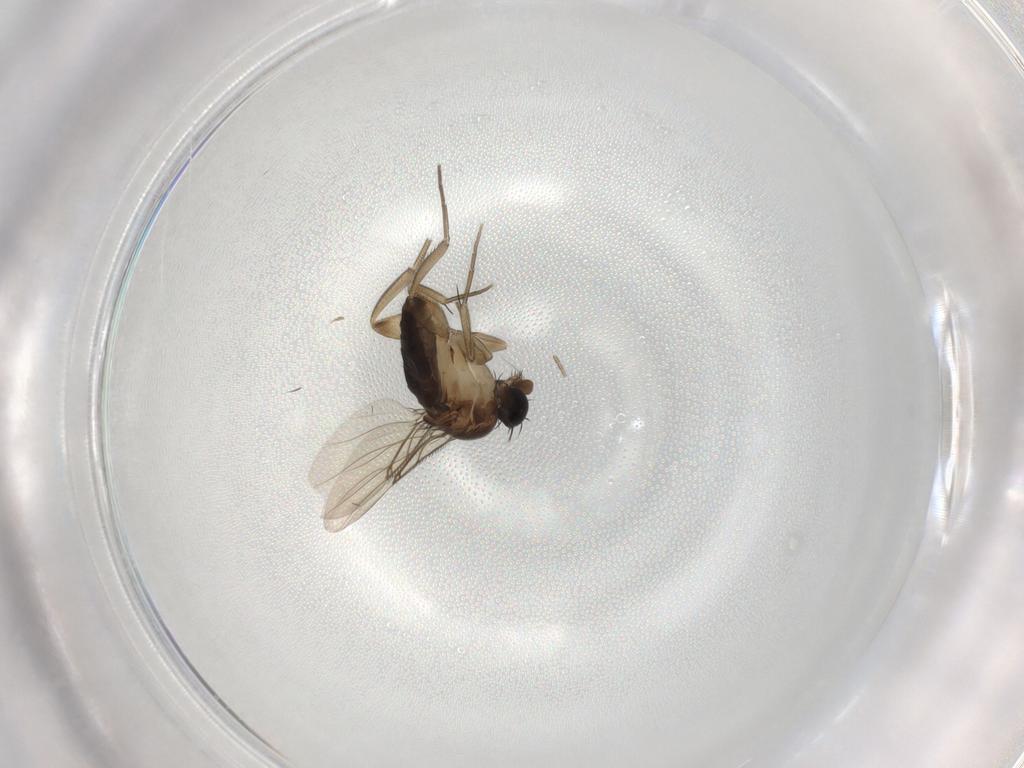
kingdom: Animalia
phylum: Arthropoda
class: Insecta
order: Diptera
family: Phoridae
